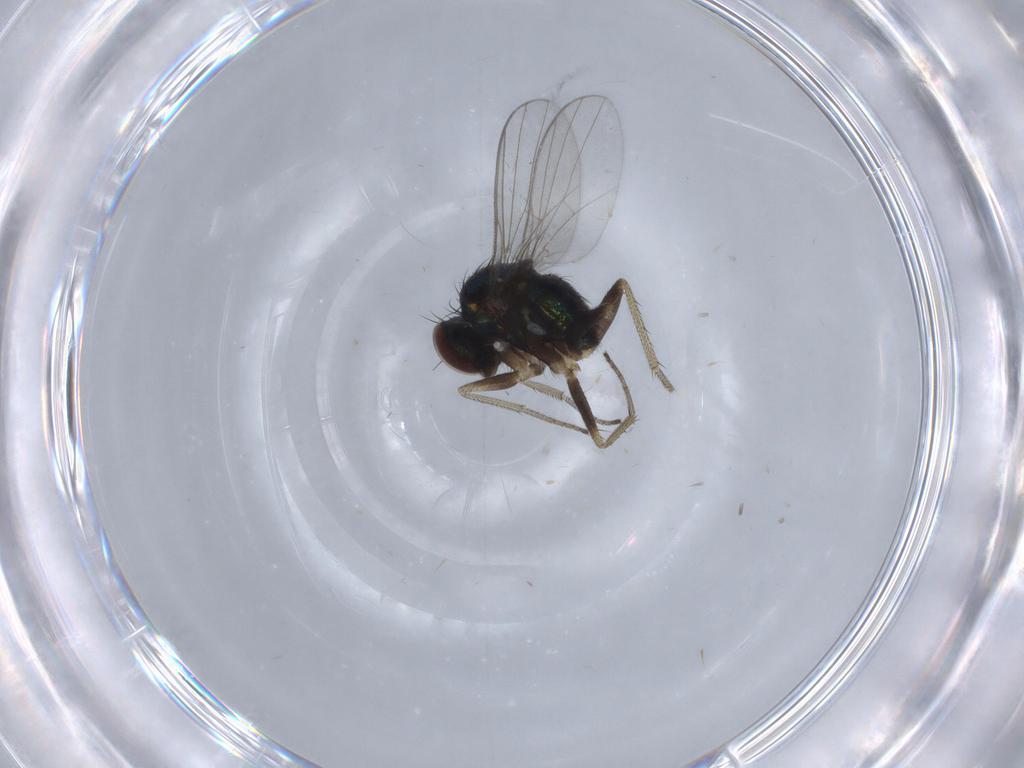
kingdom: Animalia
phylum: Arthropoda
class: Insecta
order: Diptera
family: Dolichopodidae
